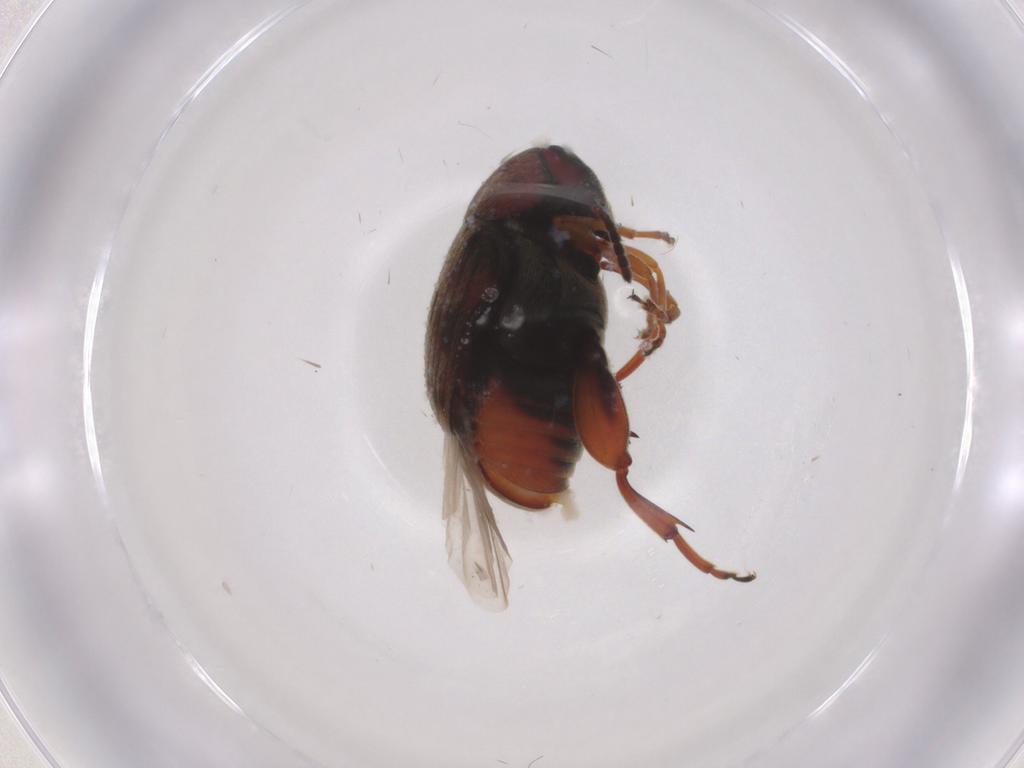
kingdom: Animalia
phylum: Arthropoda
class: Insecta
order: Coleoptera
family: Chrysomelidae
